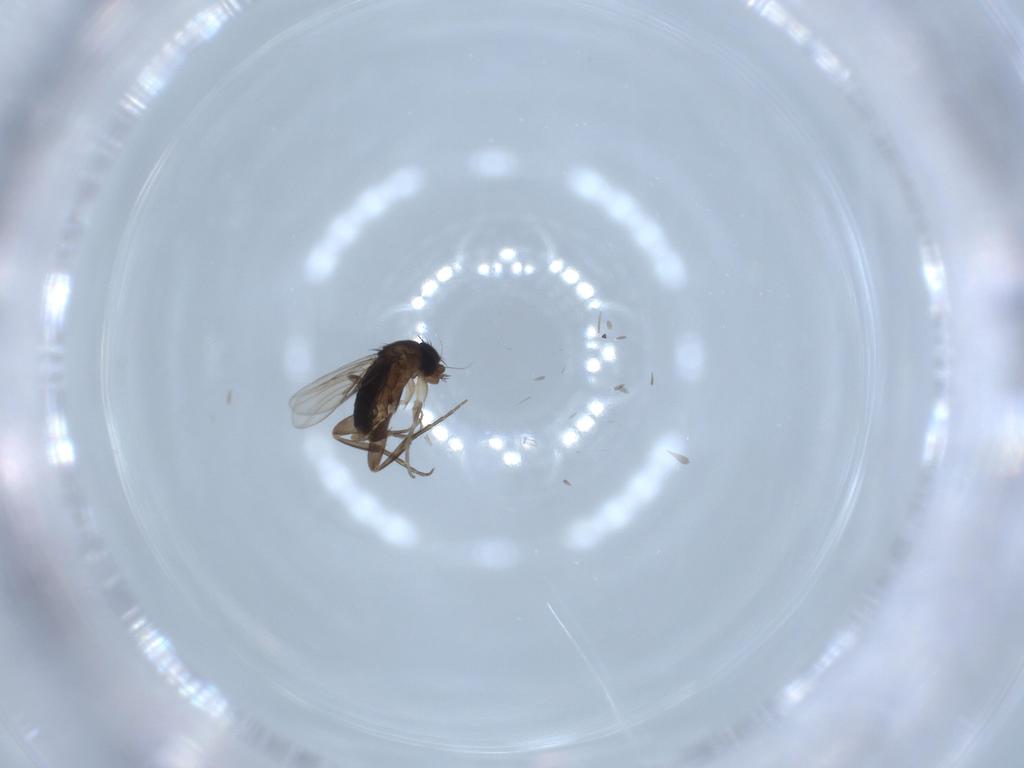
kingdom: Animalia
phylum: Arthropoda
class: Insecta
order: Diptera
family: Phoridae
